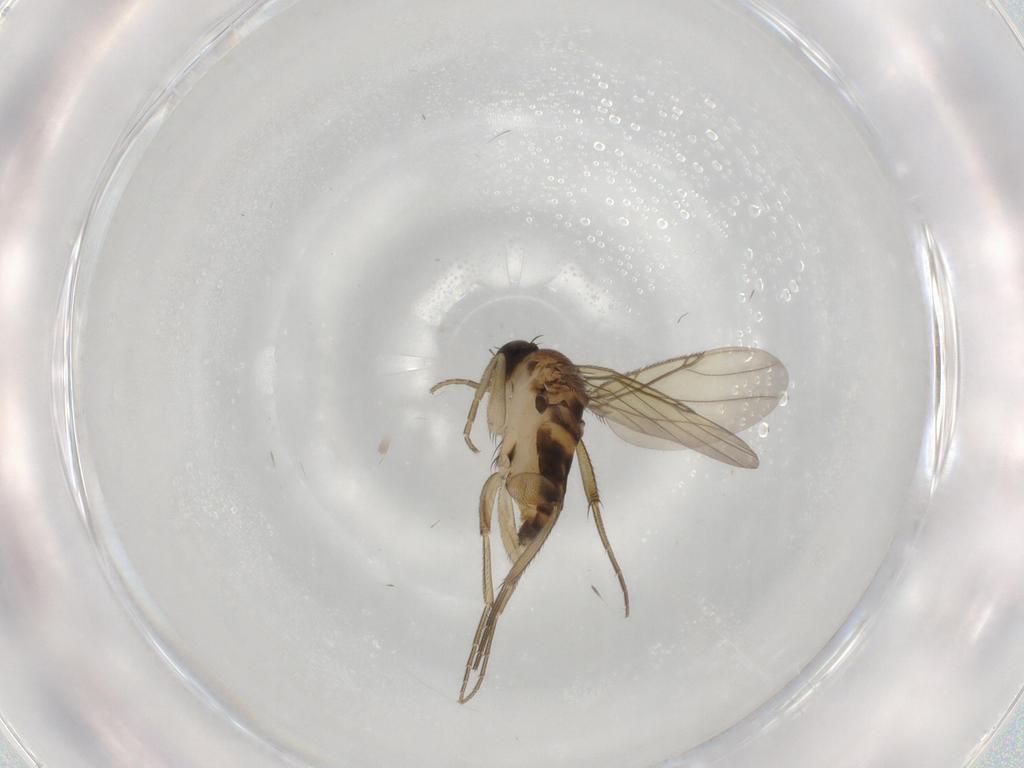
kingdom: Animalia
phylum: Arthropoda
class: Insecta
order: Diptera
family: Phoridae
